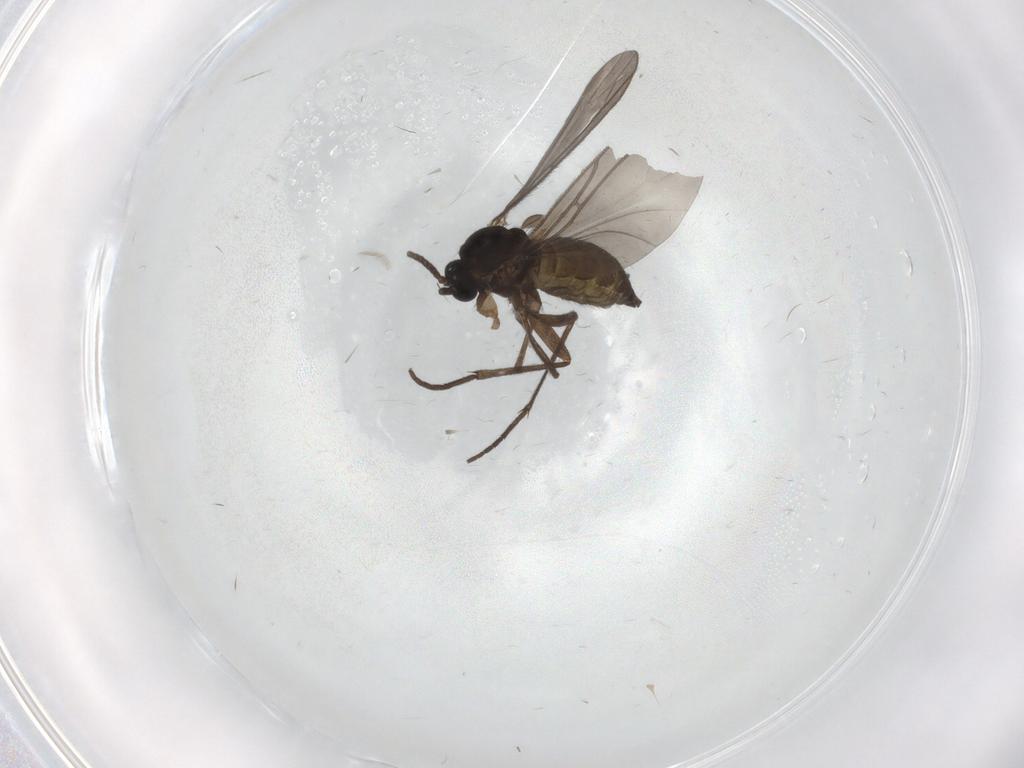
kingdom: Animalia
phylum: Arthropoda
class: Insecta
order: Diptera
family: Sciaridae
